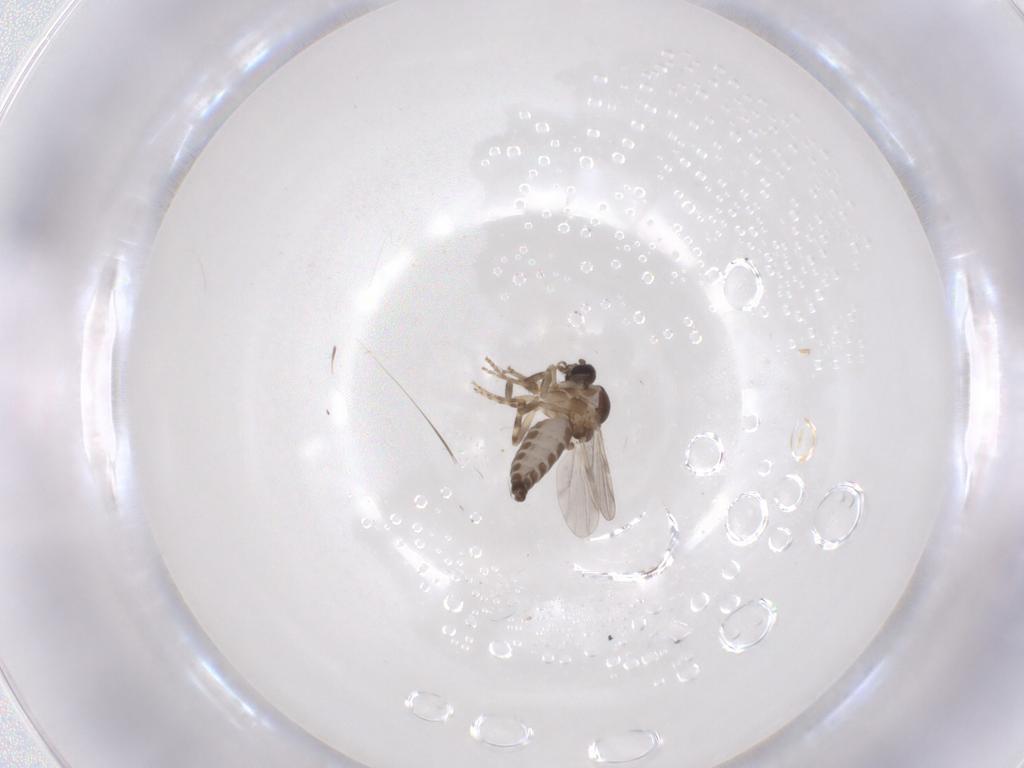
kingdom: Animalia
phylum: Arthropoda
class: Insecta
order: Diptera
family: Ceratopogonidae
